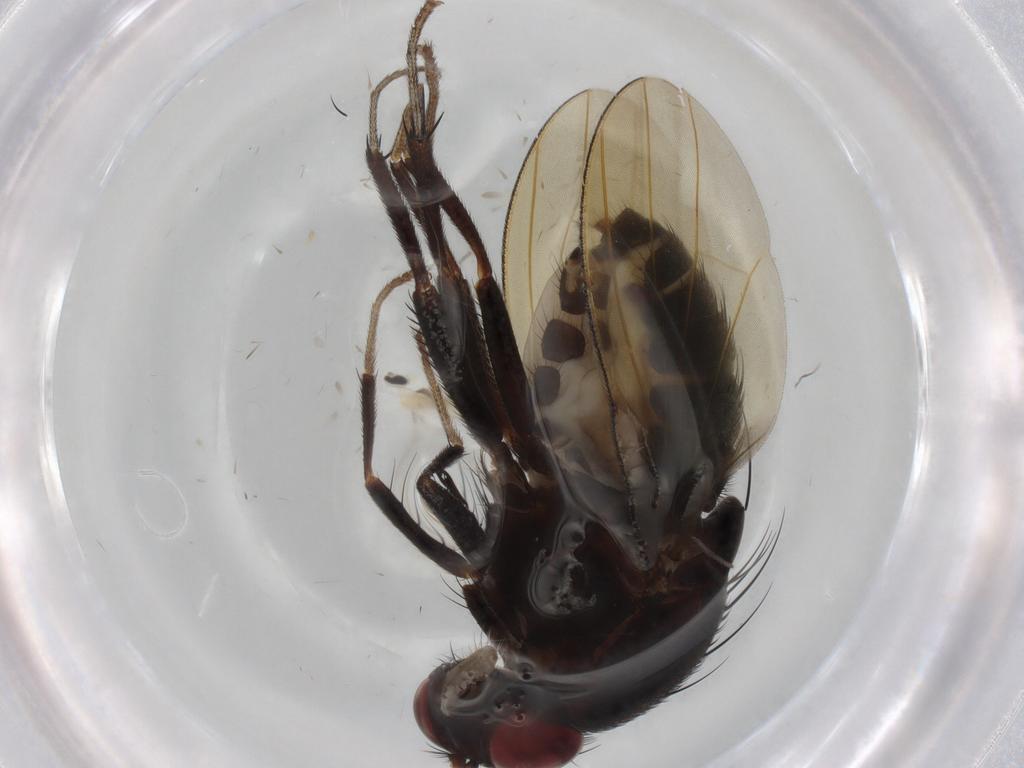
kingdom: Animalia
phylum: Arthropoda
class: Insecta
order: Diptera
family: Cecidomyiidae
